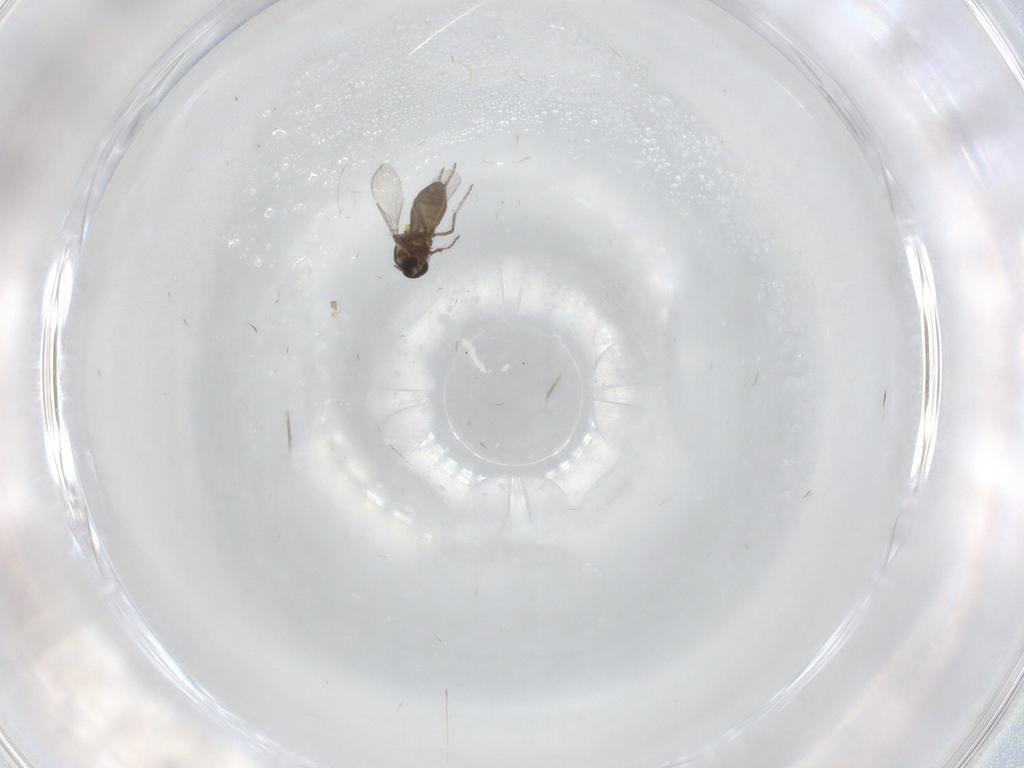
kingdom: Animalia
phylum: Arthropoda
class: Insecta
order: Diptera
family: Ceratopogonidae
